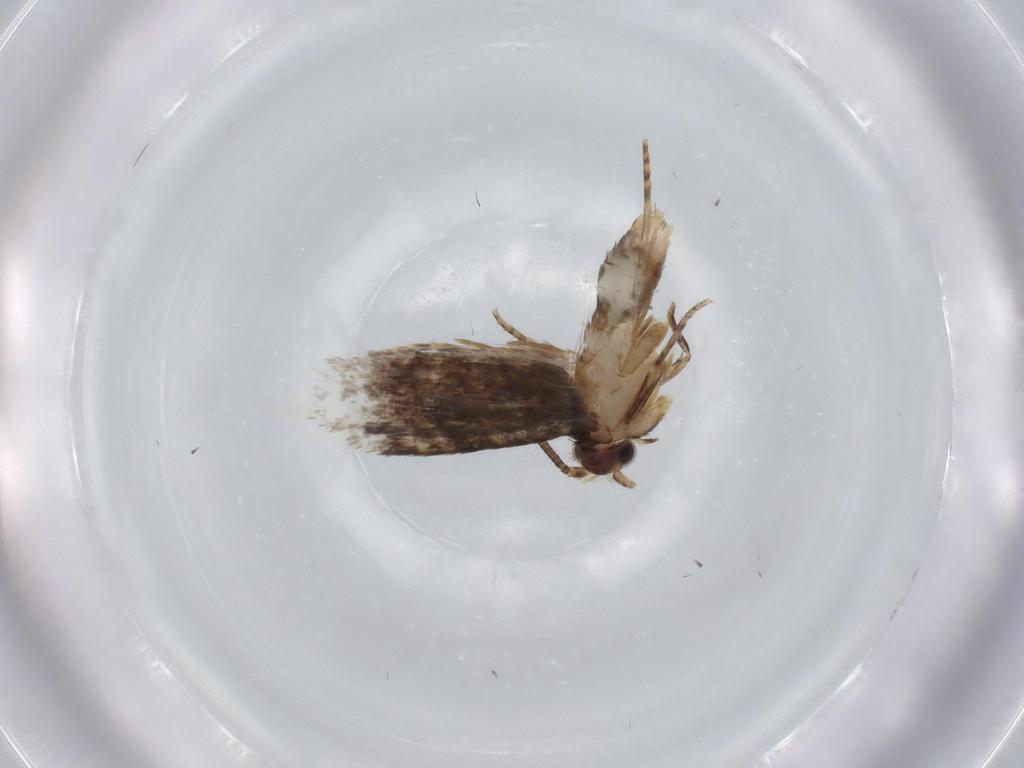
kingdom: Animalia
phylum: Arthropoda
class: Insecta
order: Lepidoptera
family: Tineidae
